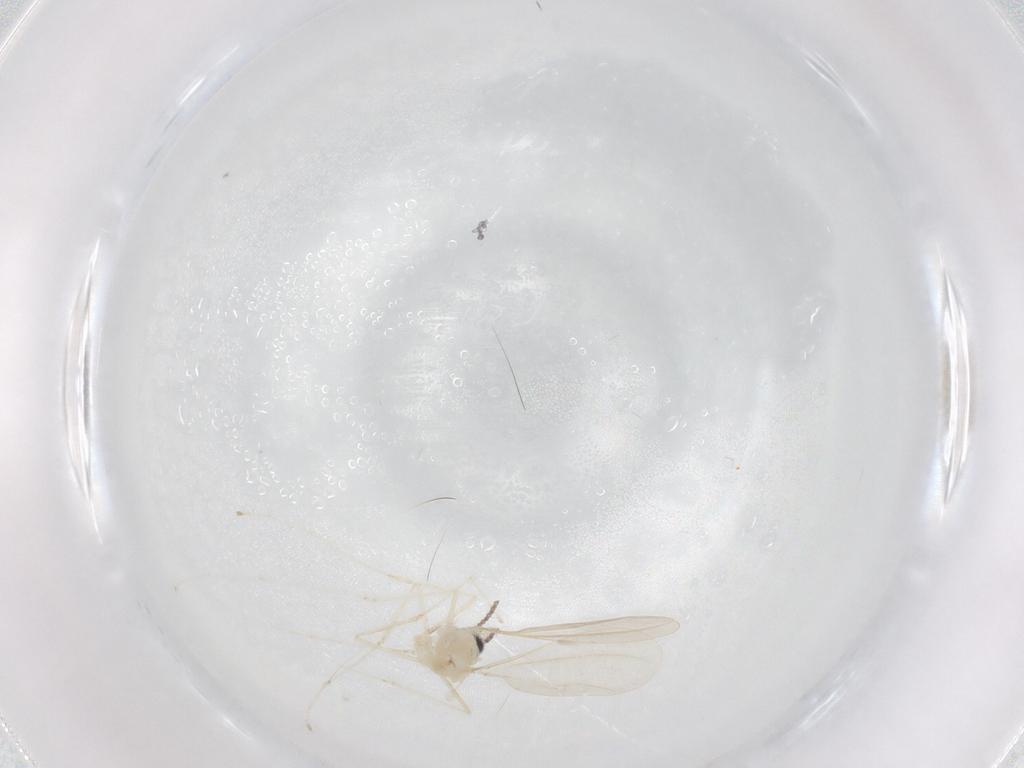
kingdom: Animalia
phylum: Arthropoda
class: Insecta
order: Diptera
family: Cecidomyiidae
